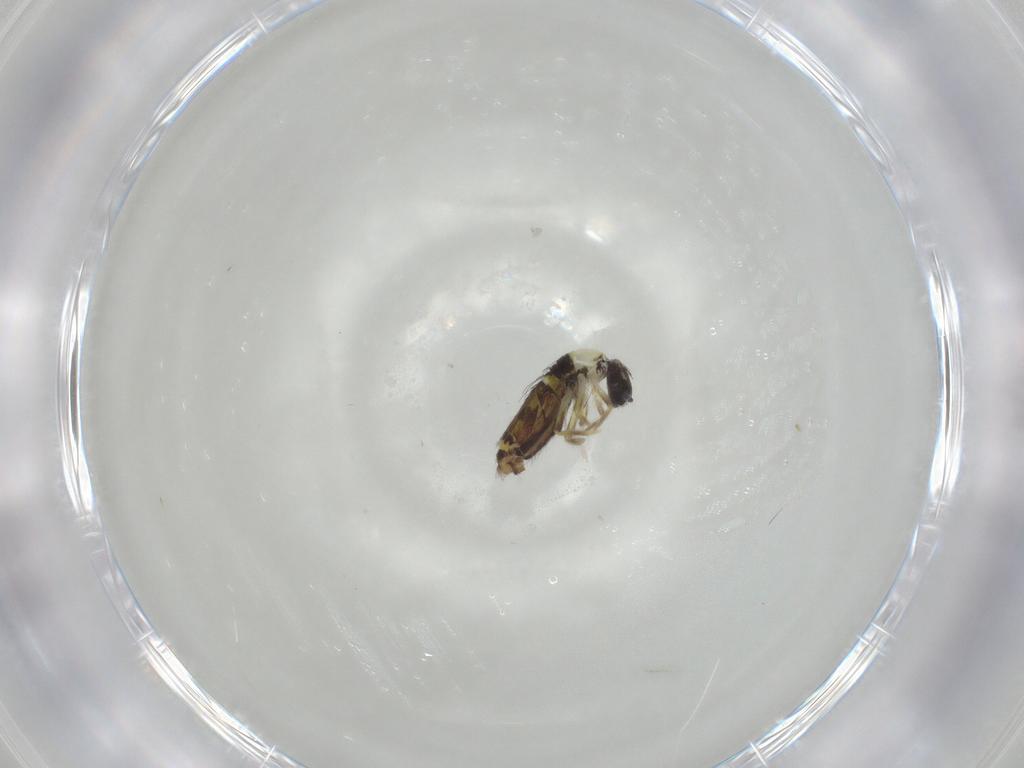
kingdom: Animalia
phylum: Arthropoda
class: Collembola
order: Entomobryomorpha
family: Entomobryidae
